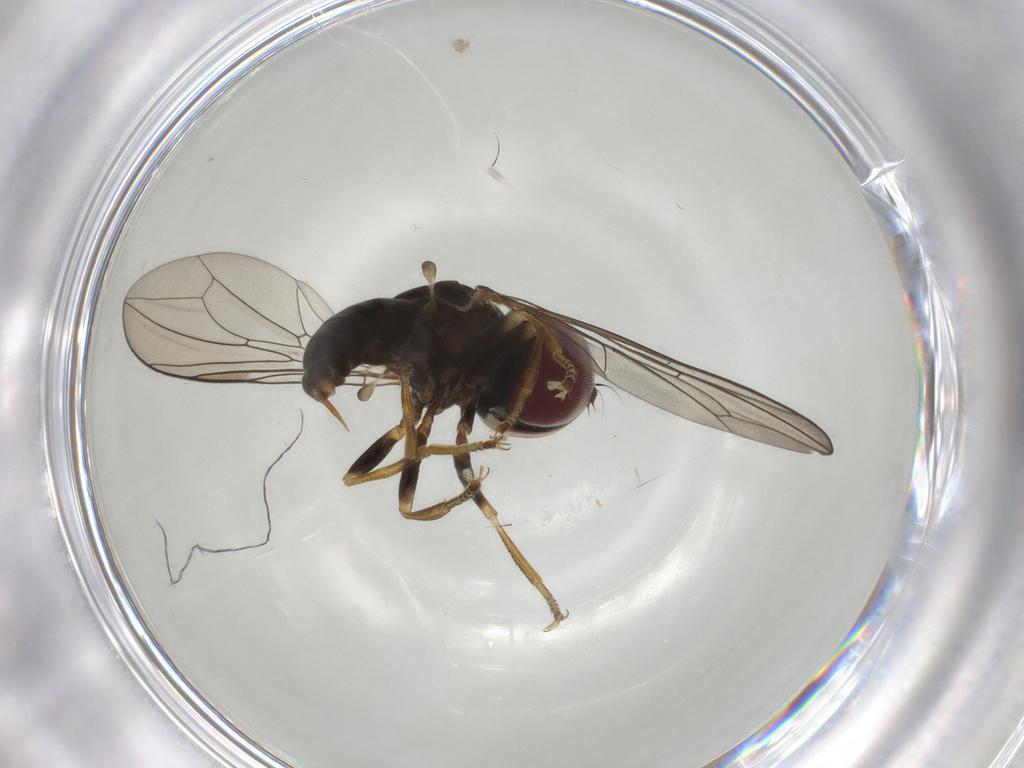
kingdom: Animalia
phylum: Arthropoda
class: Insecta
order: Diptera
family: Pipunculidae
